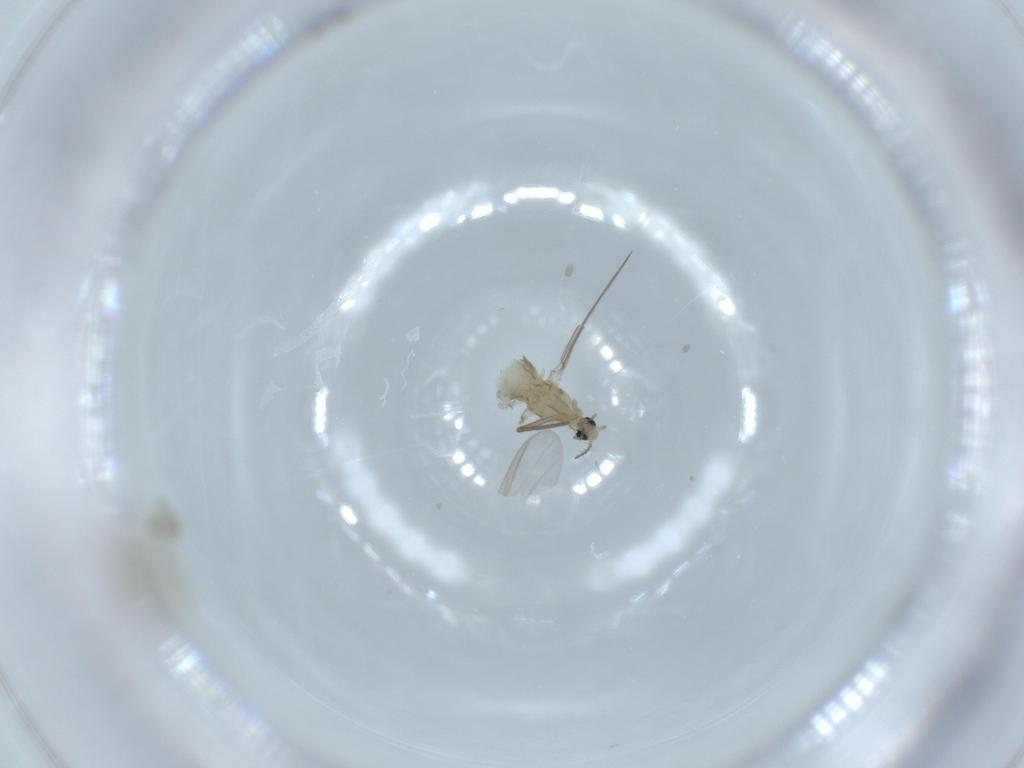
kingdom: Animalia
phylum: Arthropoda
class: Insecta
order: Diptera
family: Chironomidae
